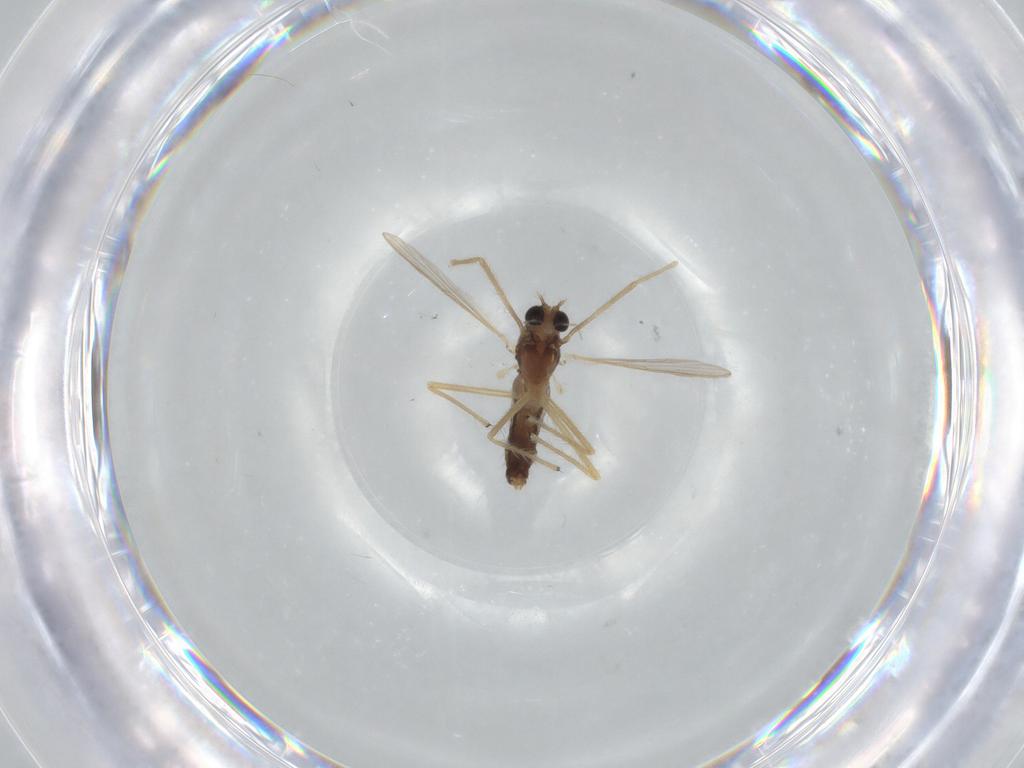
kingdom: Animalia
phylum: Arthropoda
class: Insecta
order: Diptera
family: Chironomidae
